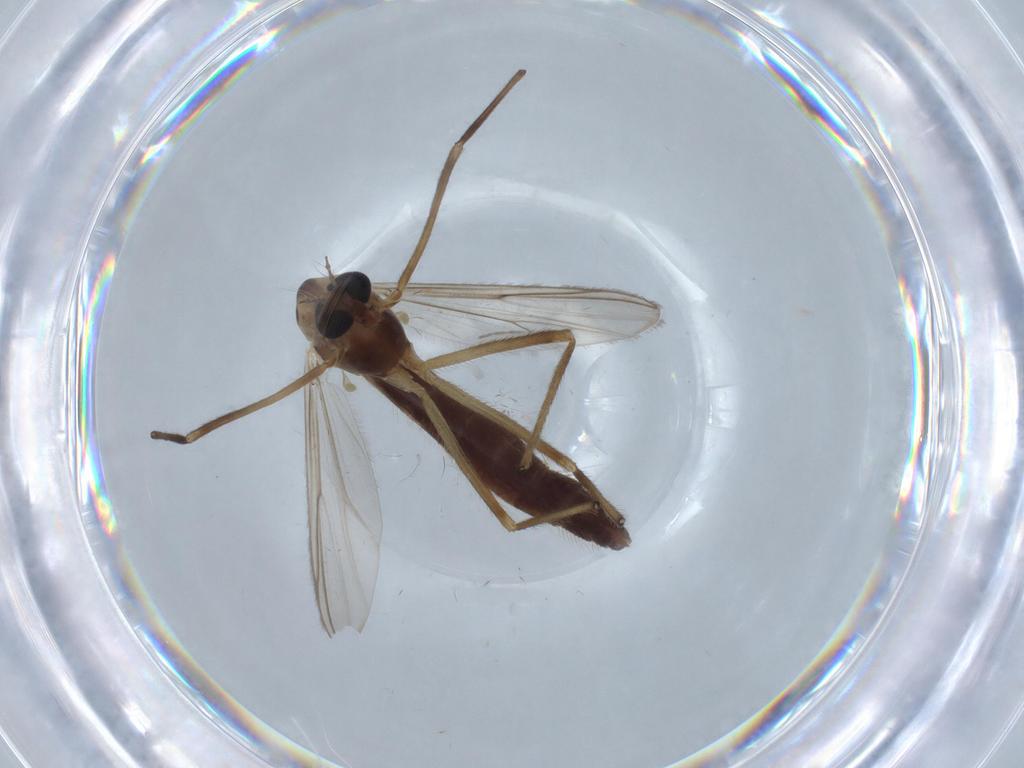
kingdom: Animalia
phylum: Arthropoda
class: Insecta
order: Diptera
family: Chironomidae
